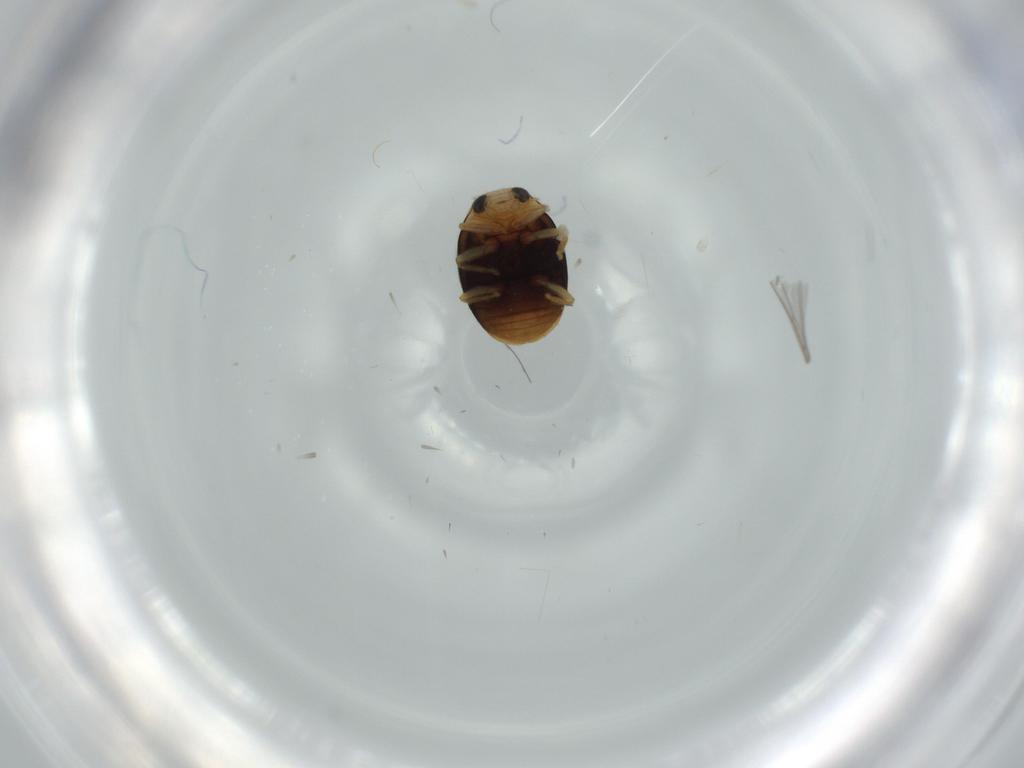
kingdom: Animalia
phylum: Arthropoda
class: Insecta
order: Coleoptera
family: Coccinellidae
